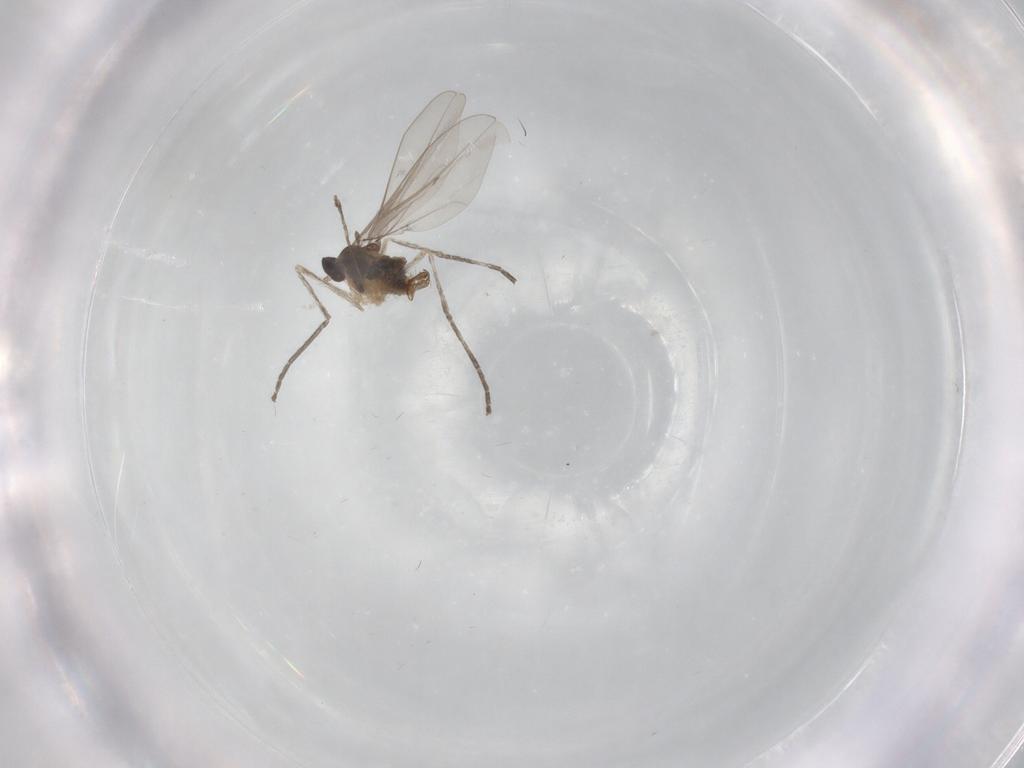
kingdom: Animalia
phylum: Arthropoda
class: Insecta
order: Diptera
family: Cecidomyiidae
